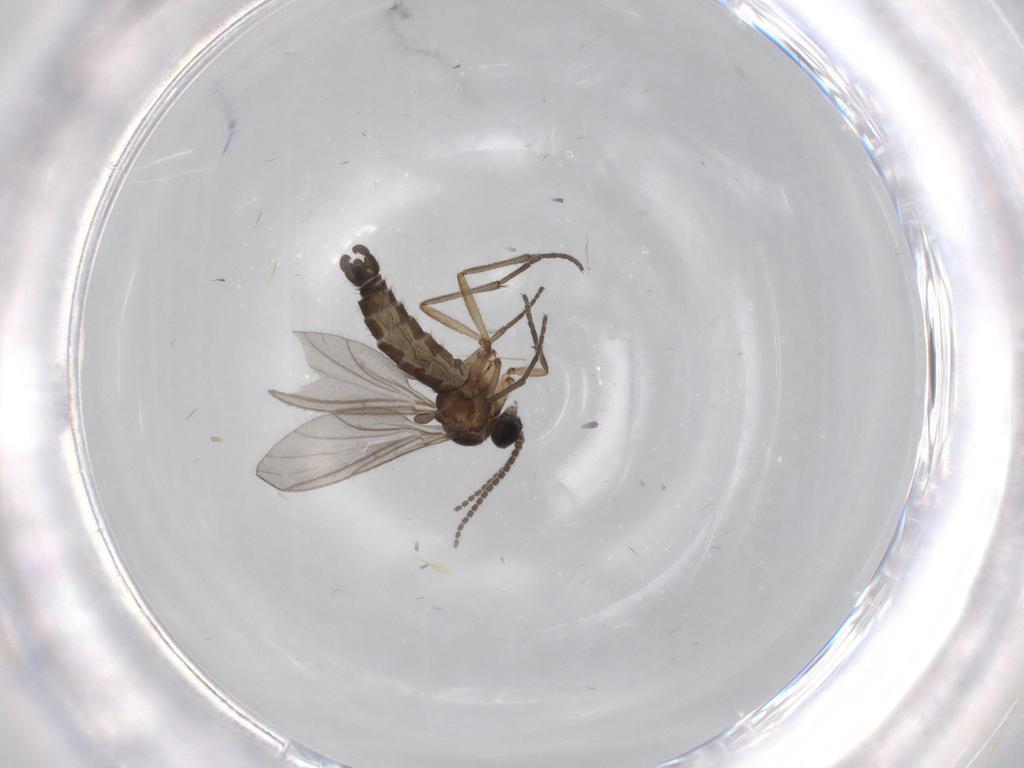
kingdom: Animalia
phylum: Arthropoda
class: Insecta
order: Diptera
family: Sciaridae
